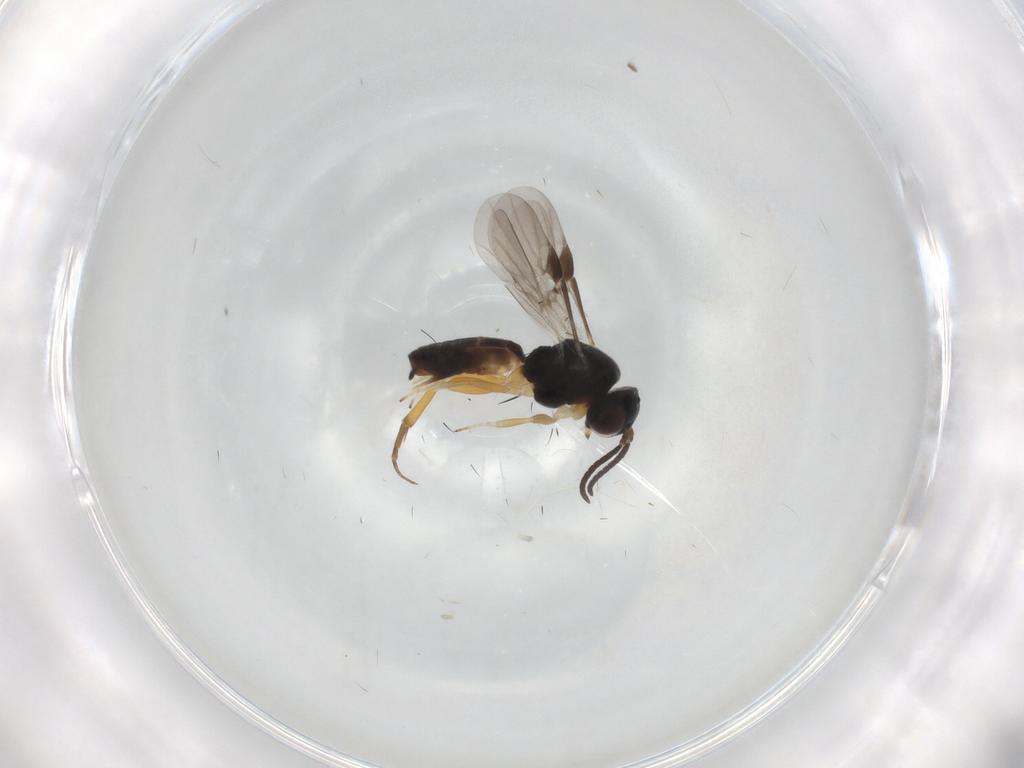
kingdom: Animalia
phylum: Arthropoda
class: Insecta
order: Hymenoptera
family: Braconidae
